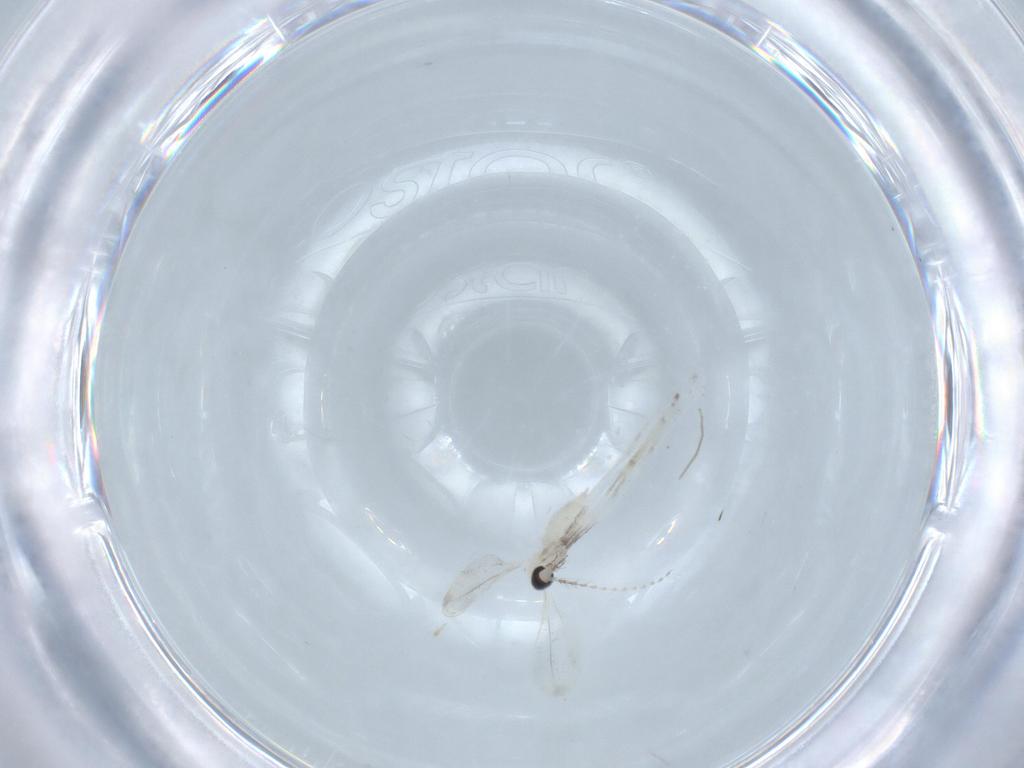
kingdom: Animalia
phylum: Arthropoda
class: Insecta
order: Diptera
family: Cecidomyiidae
